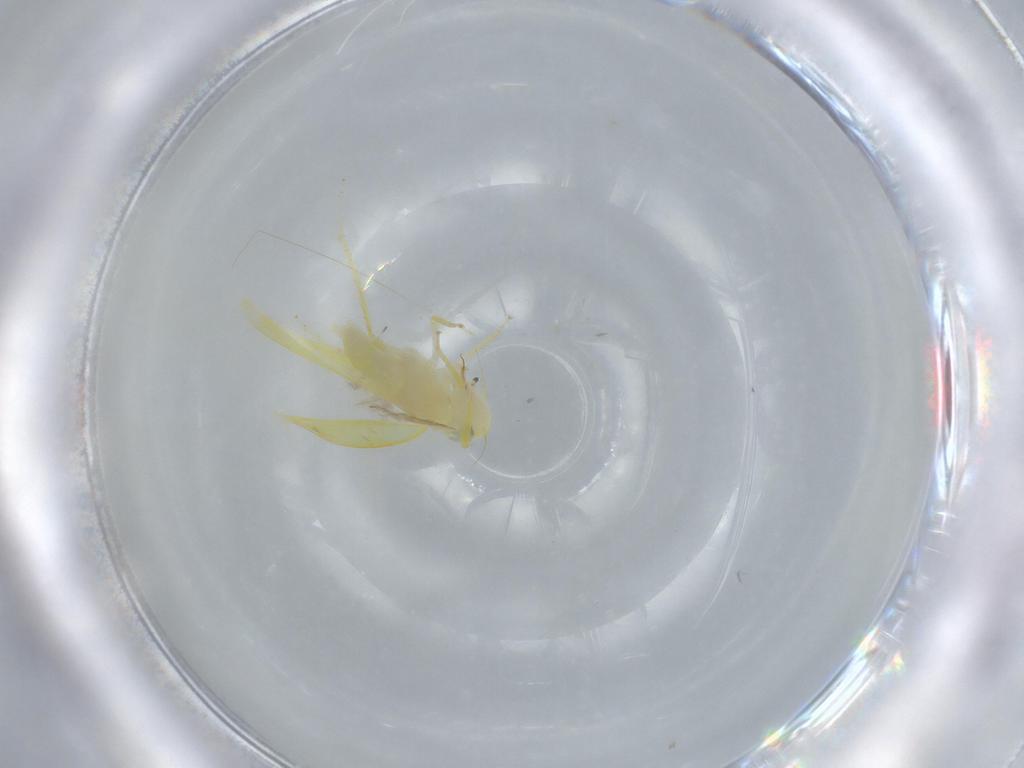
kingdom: Animalia
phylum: Arthropoda
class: Insecta
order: Hemiptera
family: Cicadellidae
